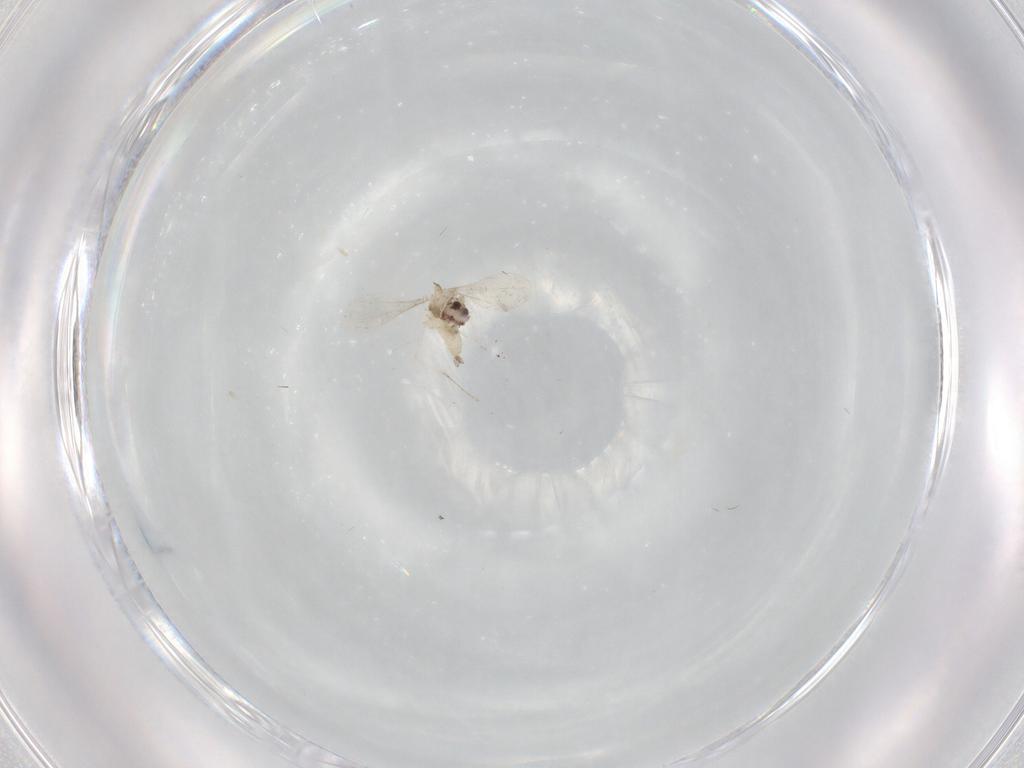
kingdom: Animalia
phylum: Arthropoda
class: Insecta
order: Diptera
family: Cecidomyiidae
